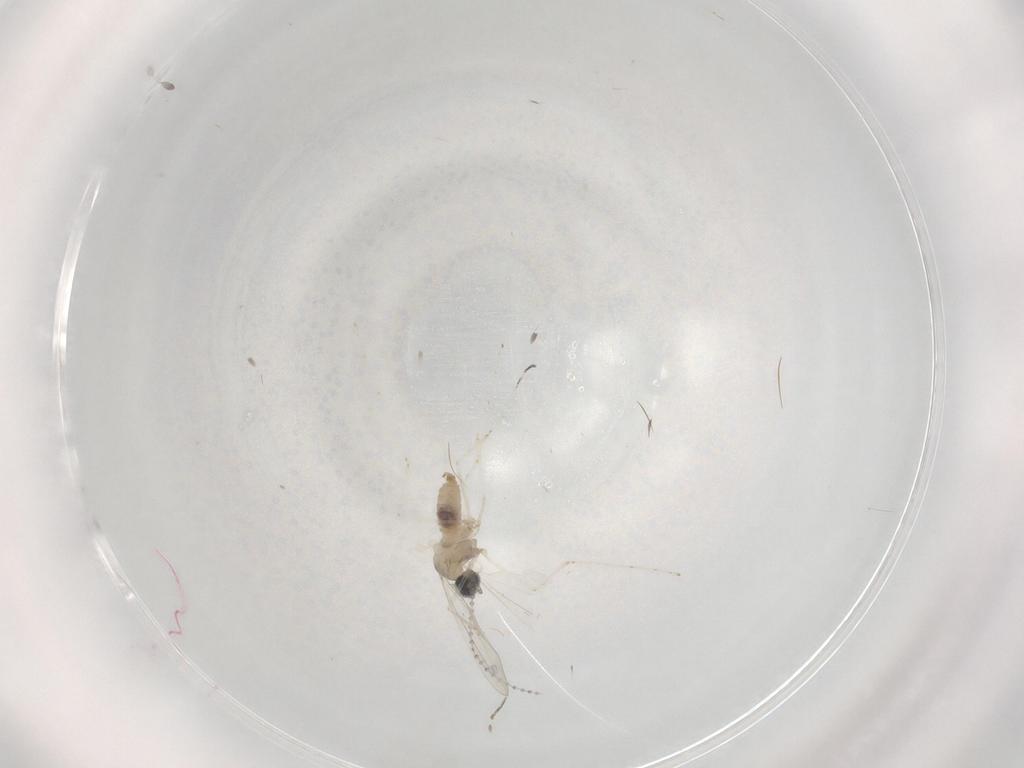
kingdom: Animalia
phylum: Arthropoda
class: Insecta
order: Diptera
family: Cecidomyiidae
